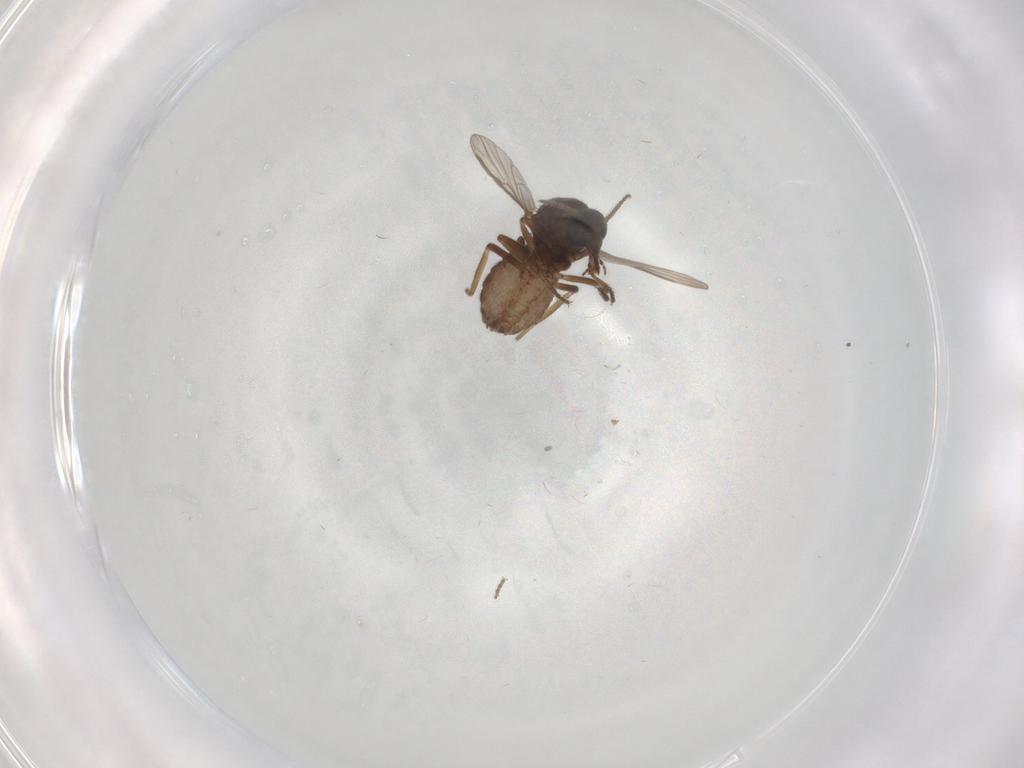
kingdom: Animalia
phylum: Arthropoda
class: Insecta
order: Diptera
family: Ceratopogonidae
